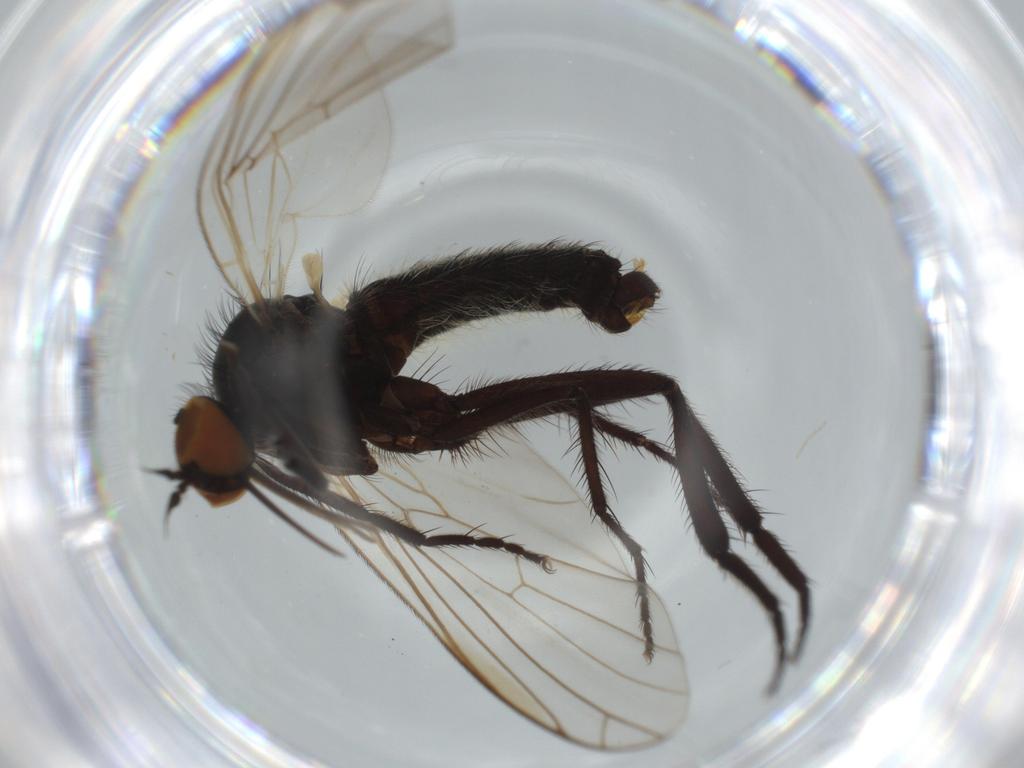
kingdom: Animalia
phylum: Arthropoda
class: Insecta
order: Diptera
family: Empididae
